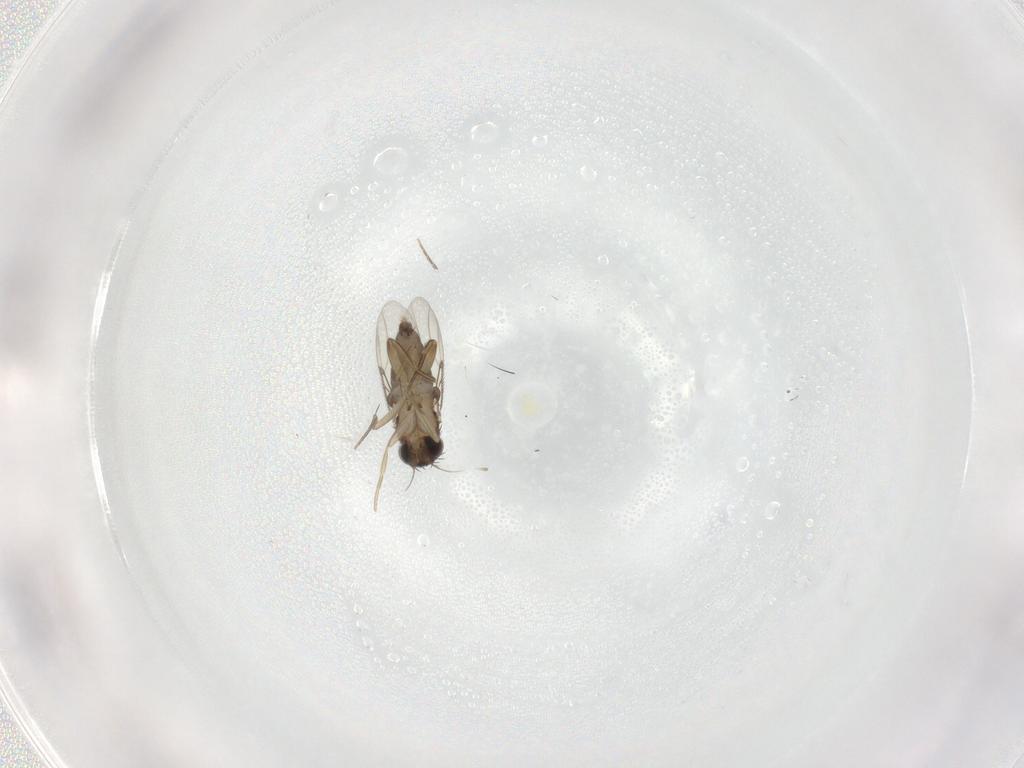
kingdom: Animalia
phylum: Arthropoda
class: Insecta
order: Diptera
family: Phoridae
